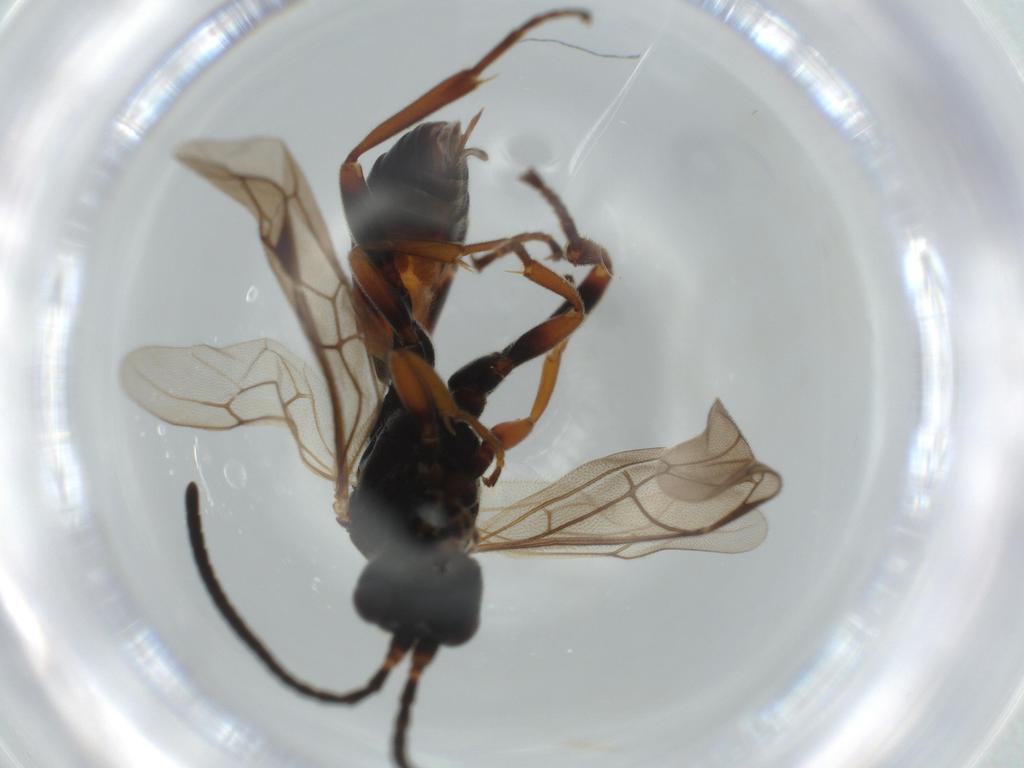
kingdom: Animalia
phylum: Arthropoda
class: Insecta
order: Hymenoptera
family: Ichneumonidae
